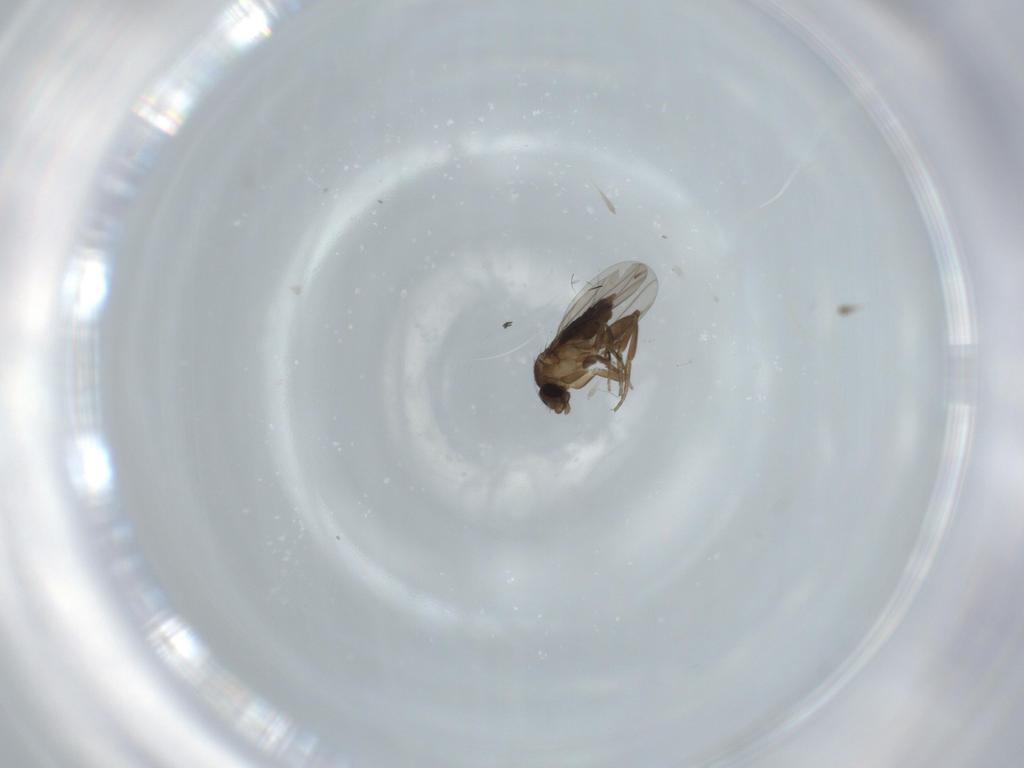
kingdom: Animalia
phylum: Arthropoda
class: Insecta
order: Diptera
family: Phoridae
